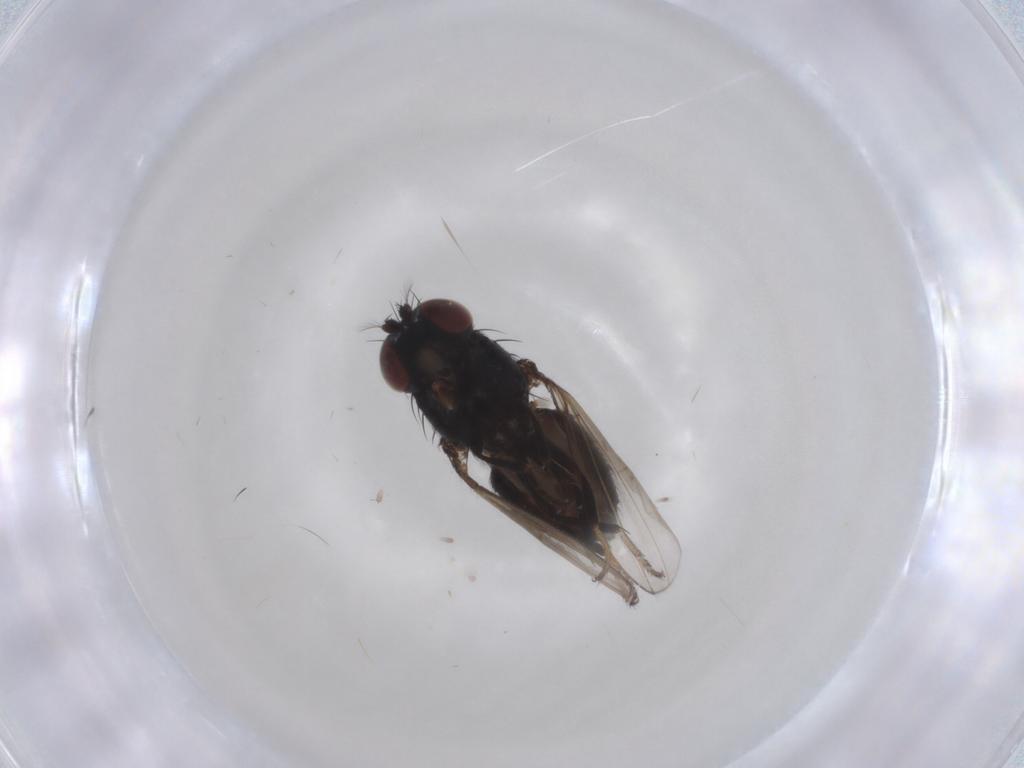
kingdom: Animalia
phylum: Arthropoda
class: Insecta
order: Diptera
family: Ephydridae
